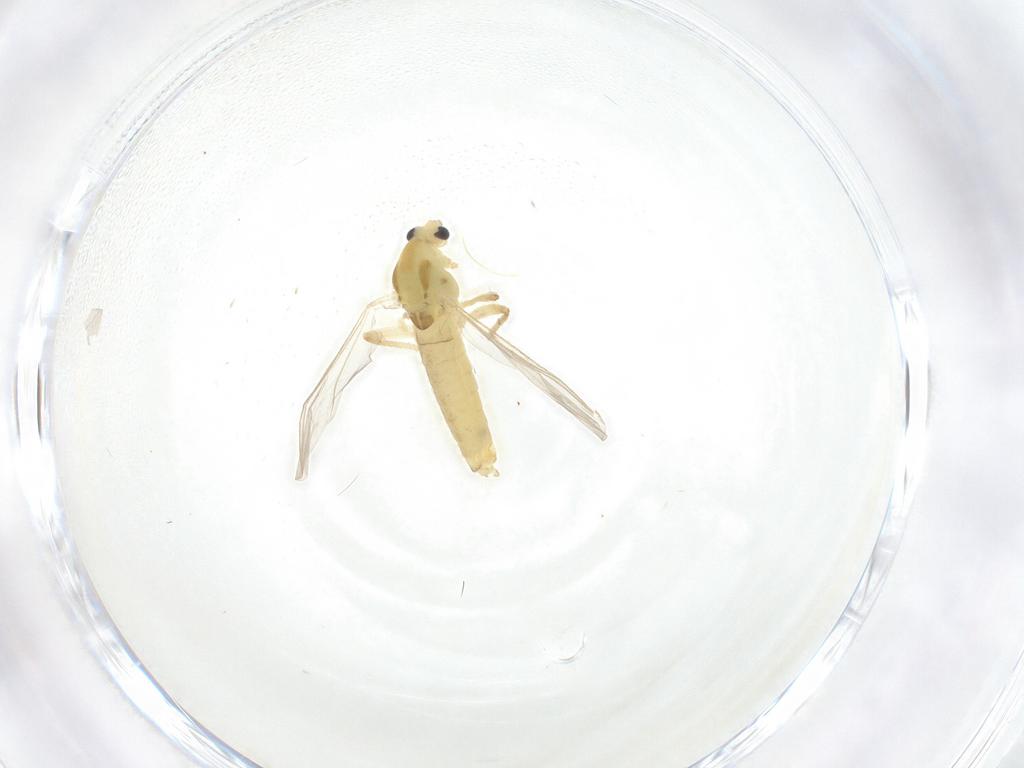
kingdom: Animalia
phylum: Arthropoda
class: Insecta
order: Diptera
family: Chironomidae
